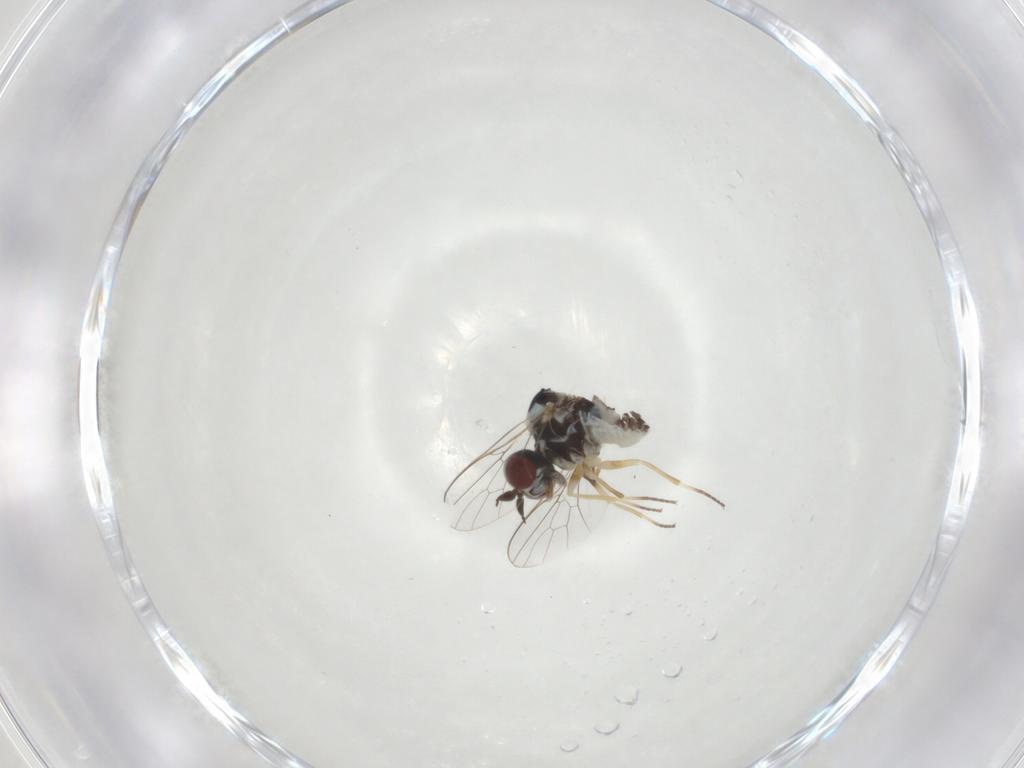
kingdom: Animalia
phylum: Arthropoda
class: Insecta
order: Diptera
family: Bombyliidae
